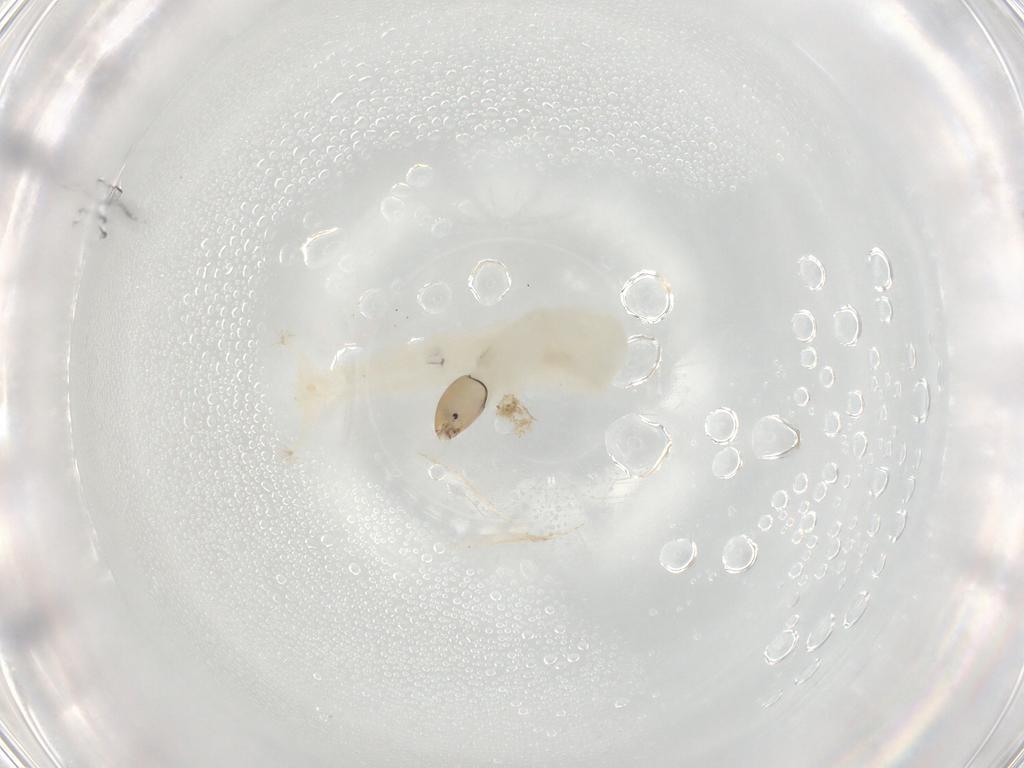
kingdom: Animalia
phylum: Arthropoda
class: Insecta
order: Diptera
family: Chironomidae
